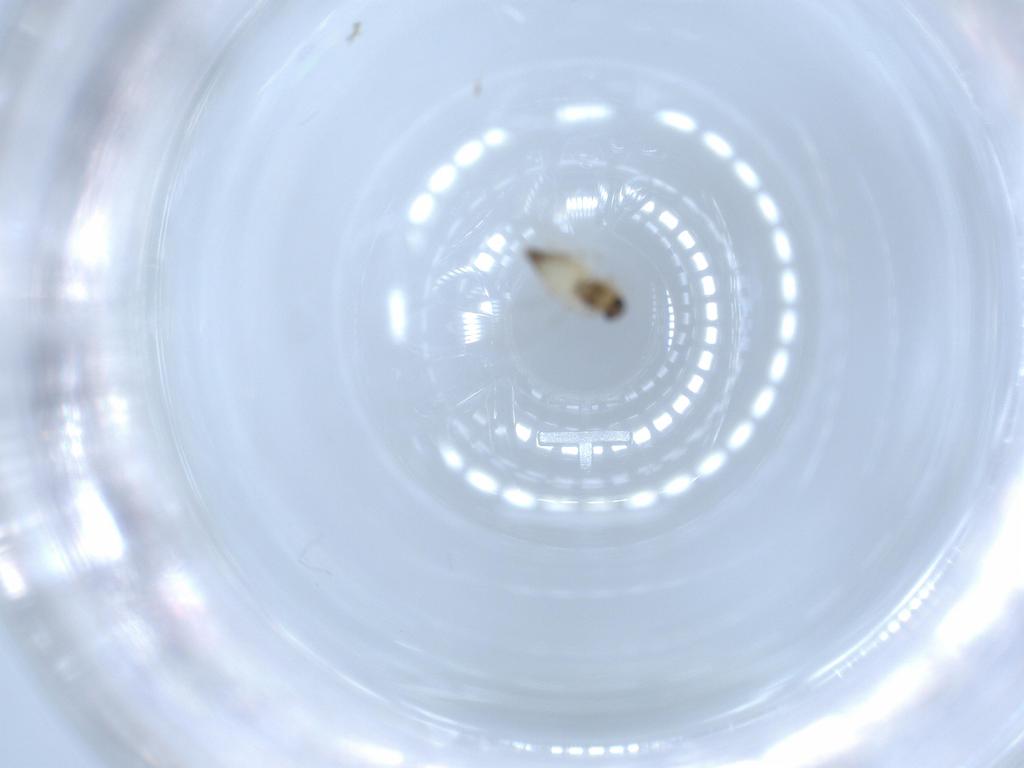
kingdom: Animalia
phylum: Arthropoda
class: Insecta
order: Diptera
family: Chironomidae
